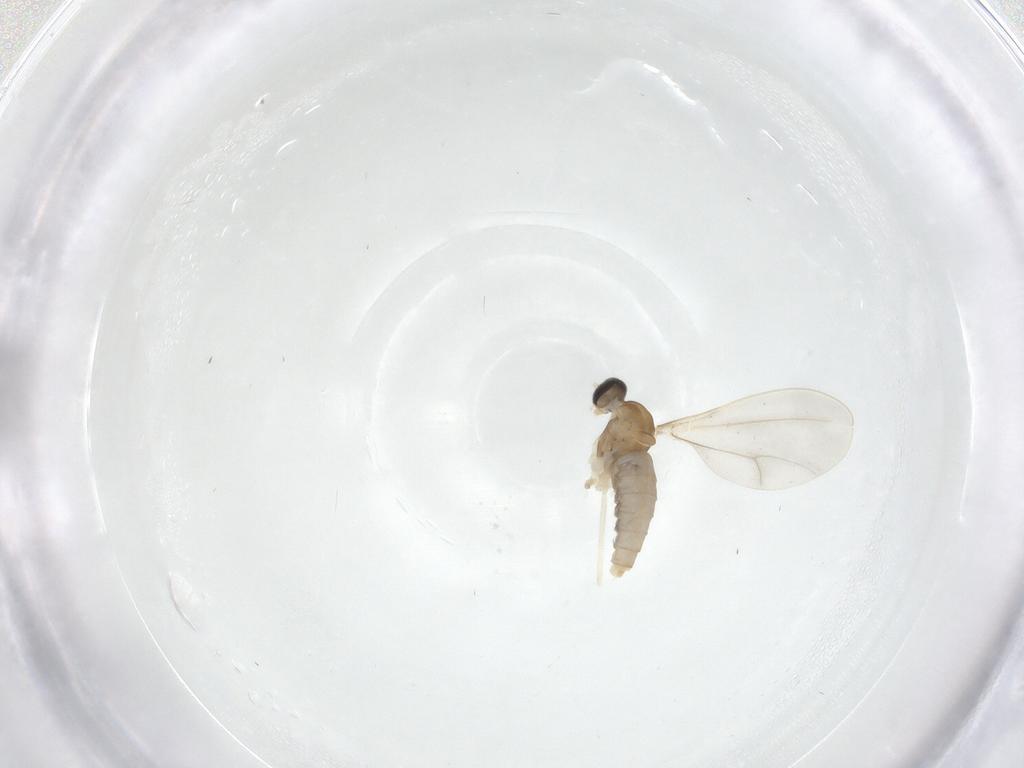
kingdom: Animalia
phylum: Arthropoda
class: Insecta
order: Diptera
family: Cecidomyiidae
